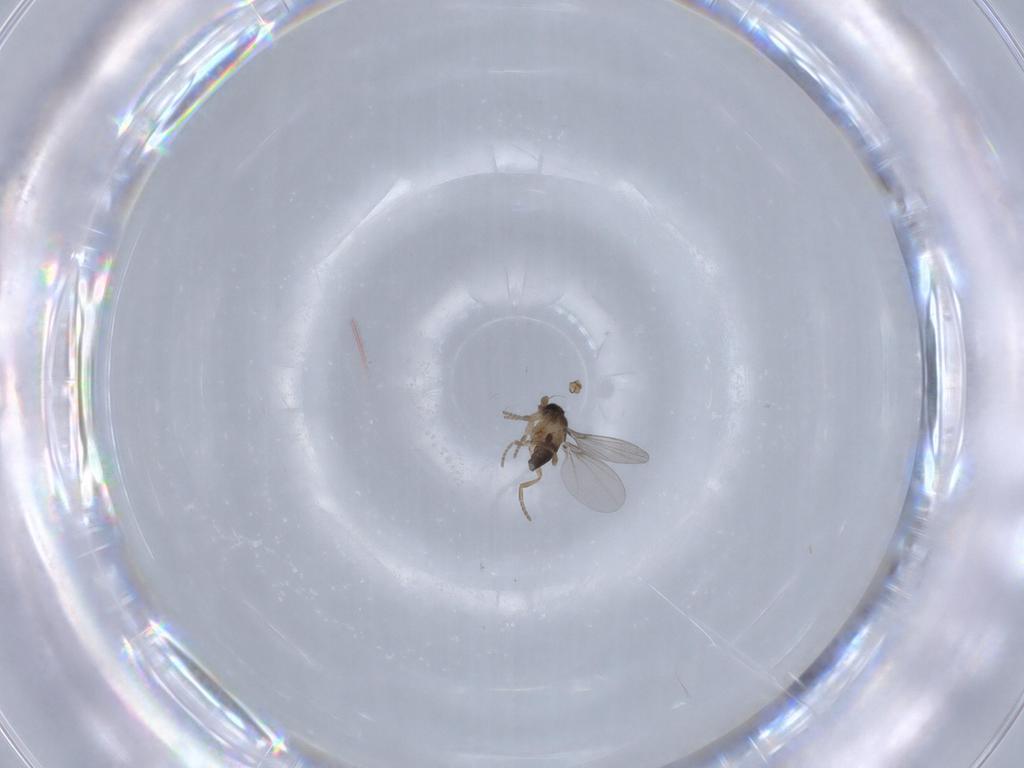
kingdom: Animalia
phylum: Arthropoda
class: Insecta
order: Diptera
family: Phoridae
